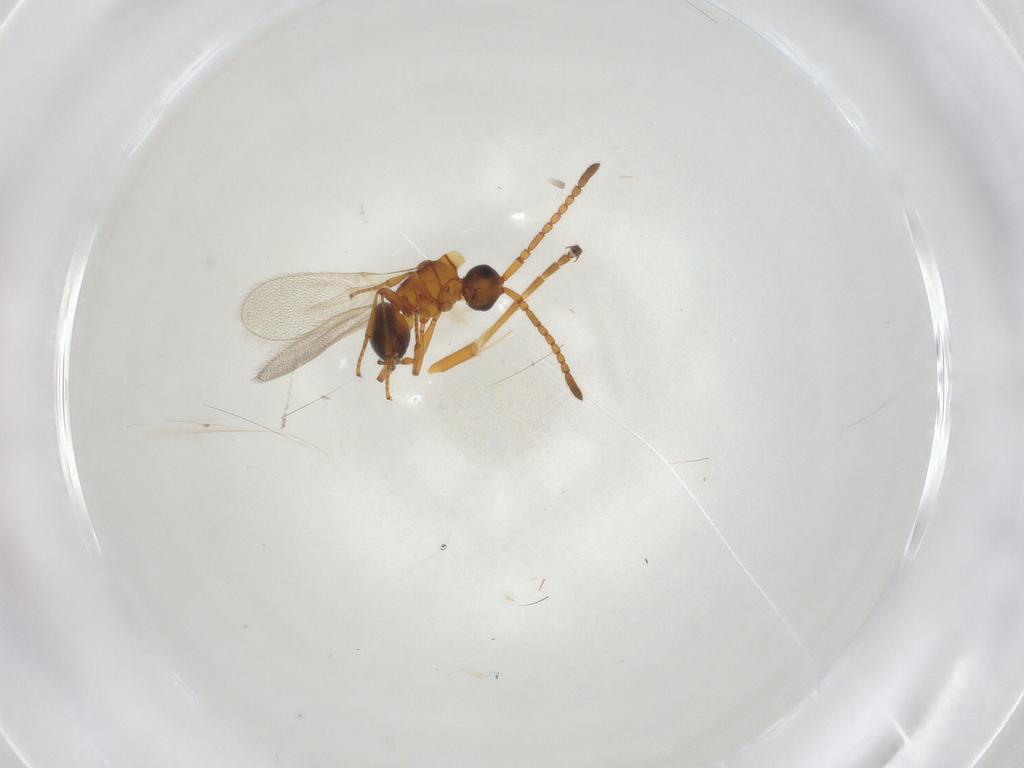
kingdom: Animalia
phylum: Arthropoda
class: Insecta
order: Hymenoptera
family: Ichneumonidae
